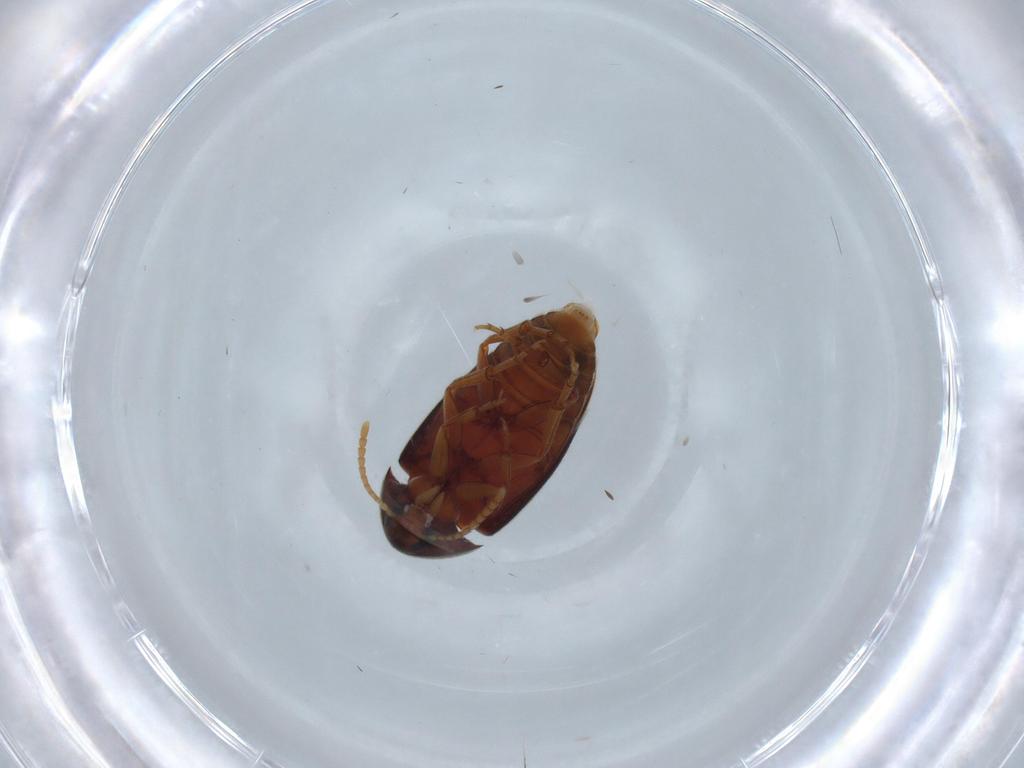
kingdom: Animalia
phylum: Arthropoda
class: Insecta
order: Coleoptera
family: Scraptiidae
